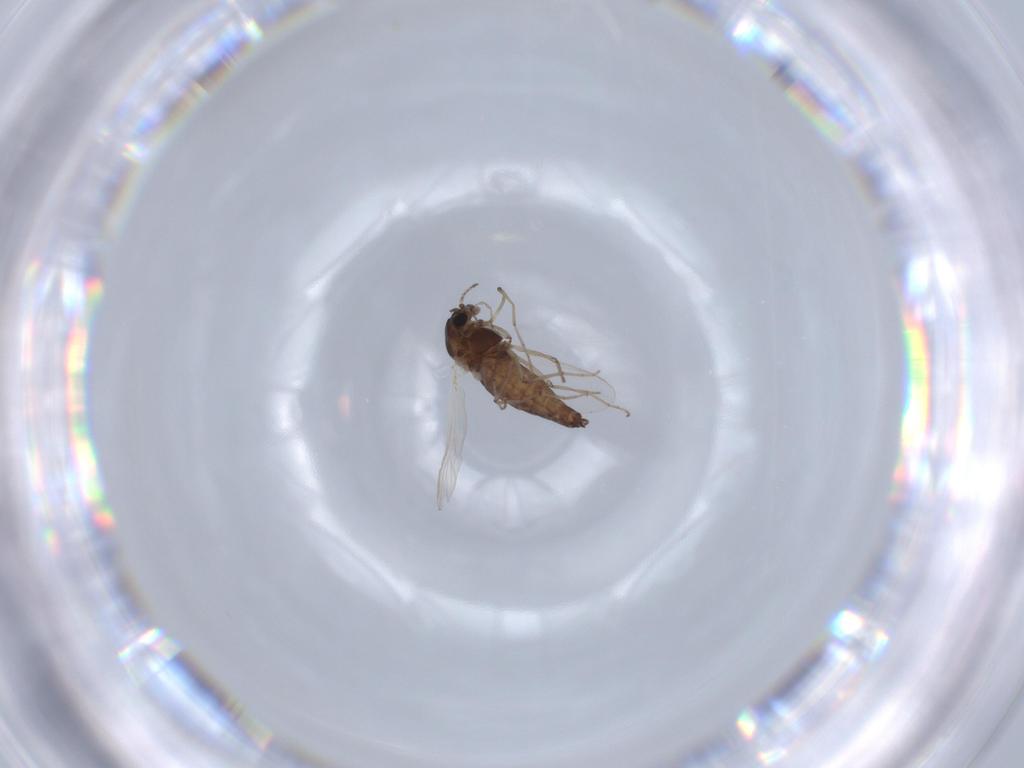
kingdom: Animalia
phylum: Arthropoda
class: Insecta
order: Diptera
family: Chironomidae
